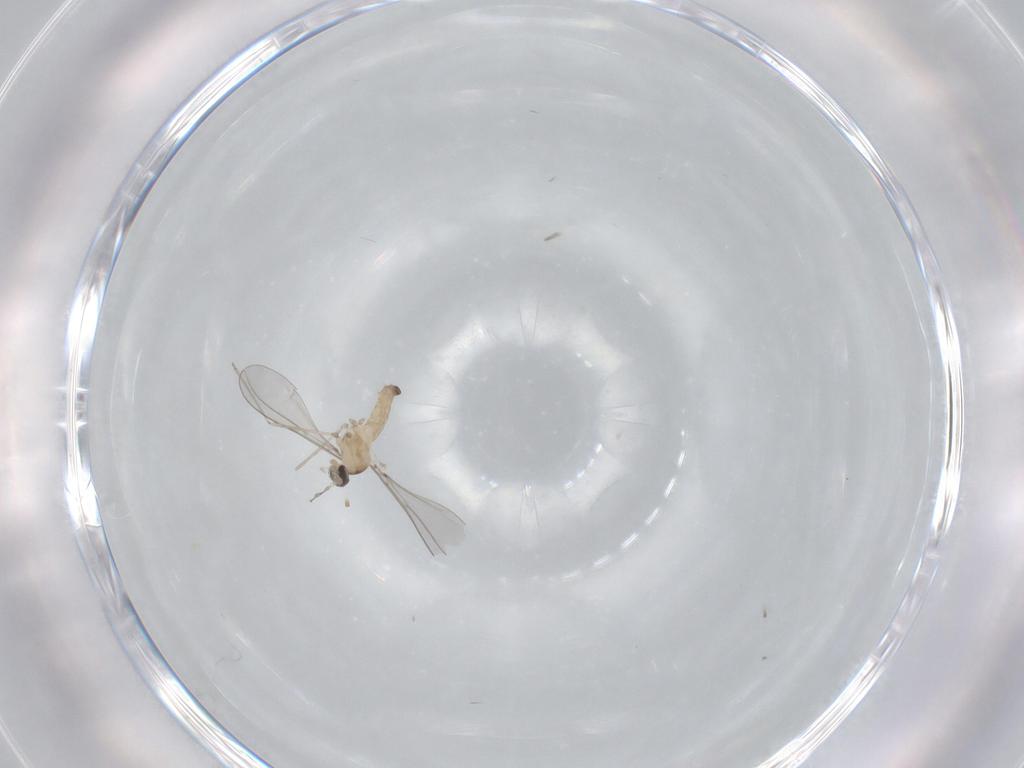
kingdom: Animalia
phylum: Arthropoda
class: Insecta
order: Diptera
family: Cecidomyiidae
